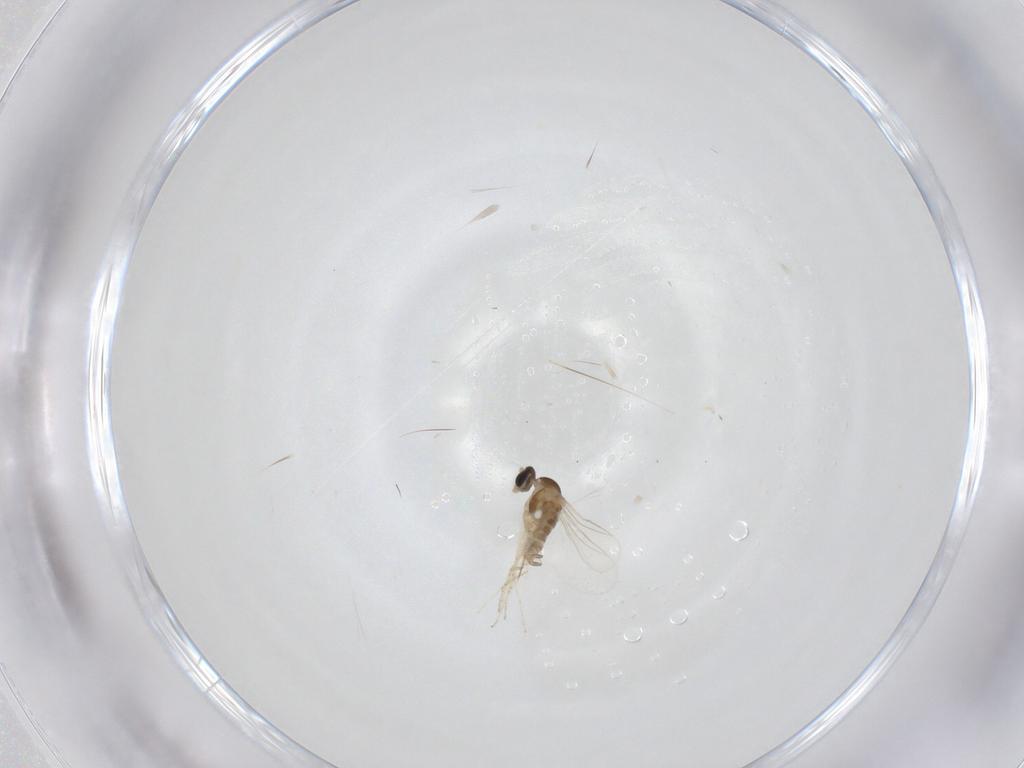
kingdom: Animalia
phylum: Arthropoda
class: Insecta
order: Diptera
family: Cecidomyiidae
